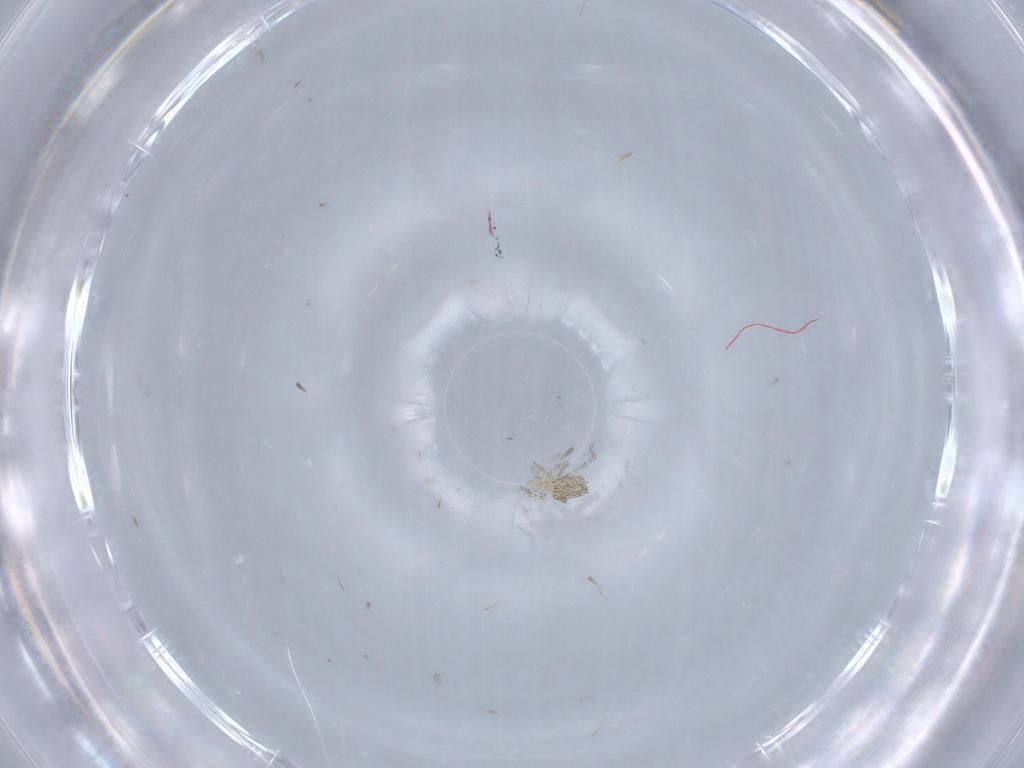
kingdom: Animalia
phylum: Arthropoda
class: Arachnida
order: Trombidiformes
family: Erythraeidae
